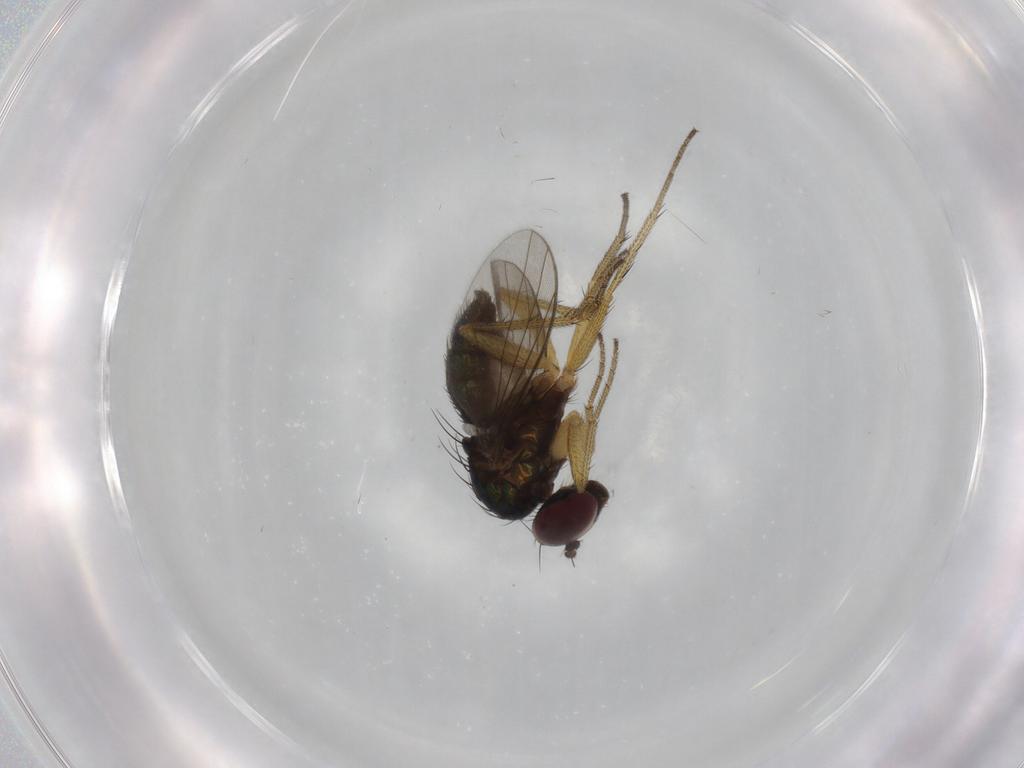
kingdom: Animalia
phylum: Arthropoda
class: Insecta
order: Diptera
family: Dolichopodidae
